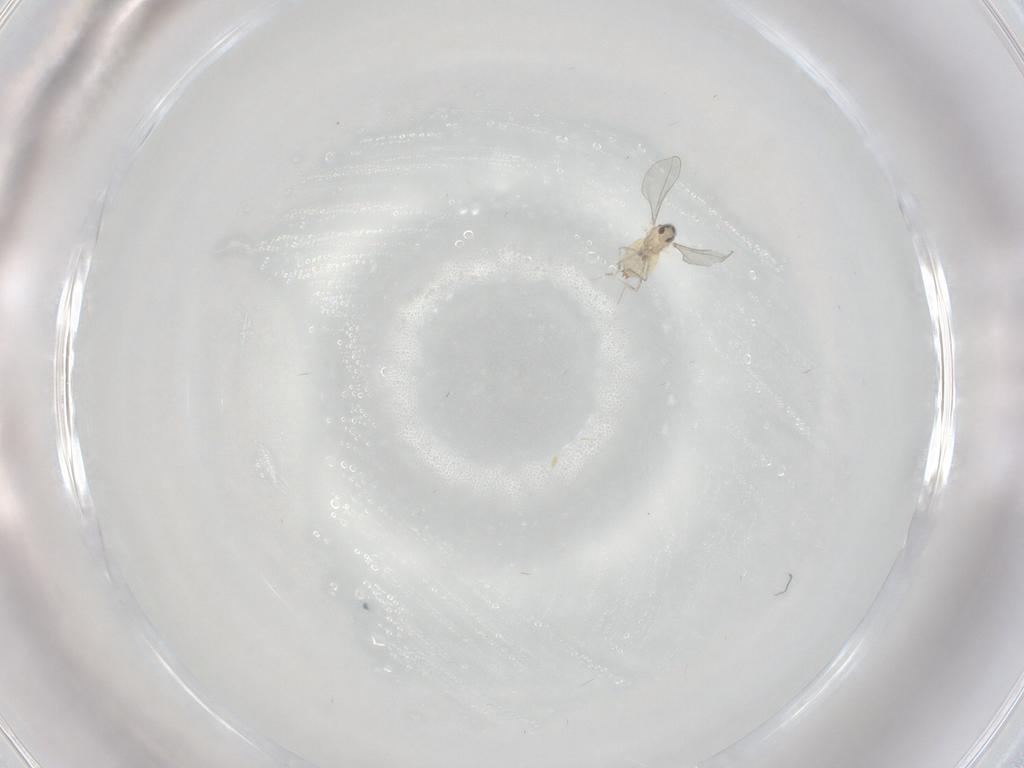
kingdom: Animalia
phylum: Arthropoda
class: Insecta
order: Diptera
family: Cecidomyiidae
